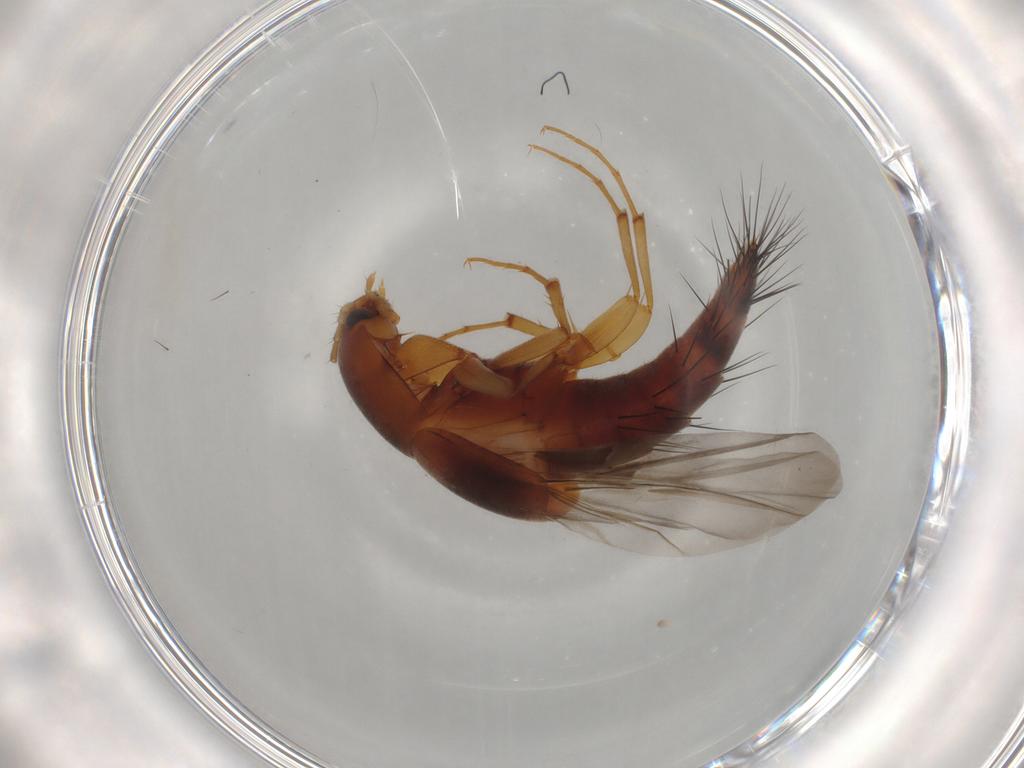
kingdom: Animalia
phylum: Arthropoda
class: Insecta
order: Coleoptera
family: Staphylinidae
